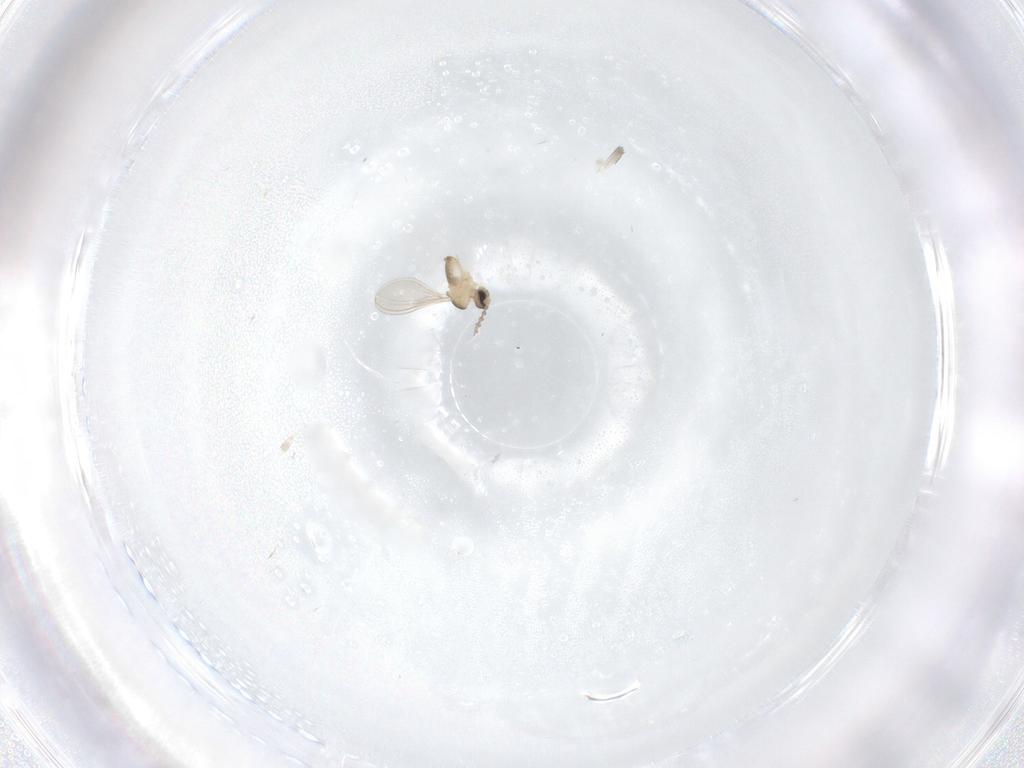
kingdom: Animalia
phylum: Arthropoda
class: Insecta
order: Diptera
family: Cecidomyiidae
